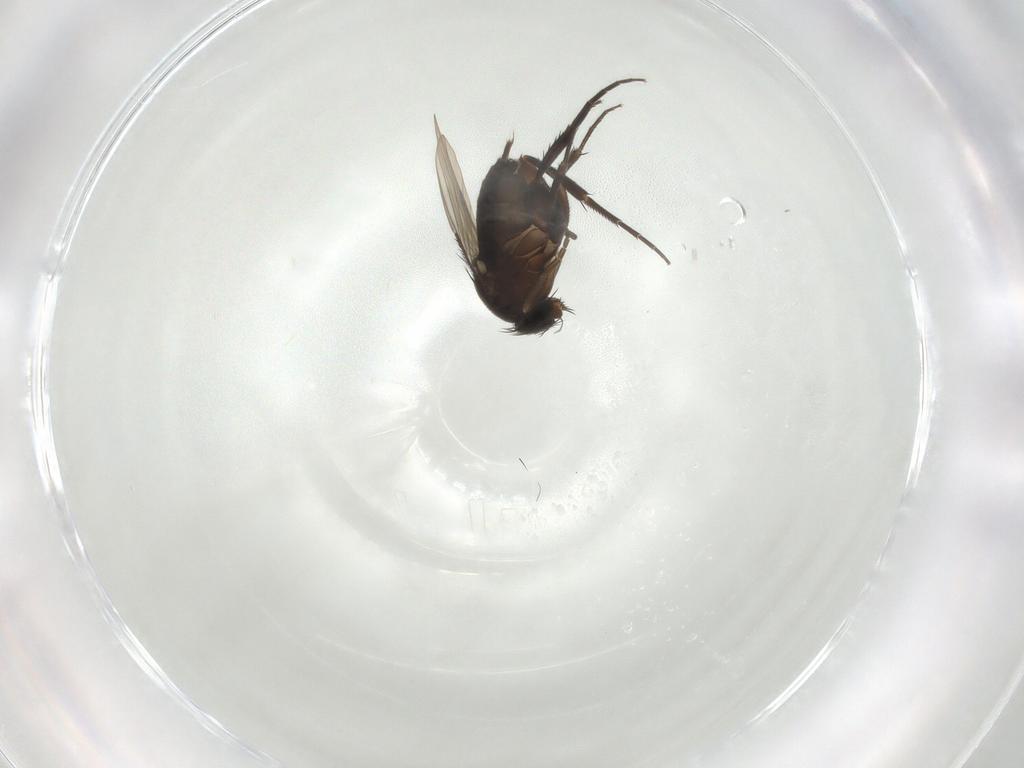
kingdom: Animalia
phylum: Arthropoda
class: Insecta
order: Diptera
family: Phoridae
